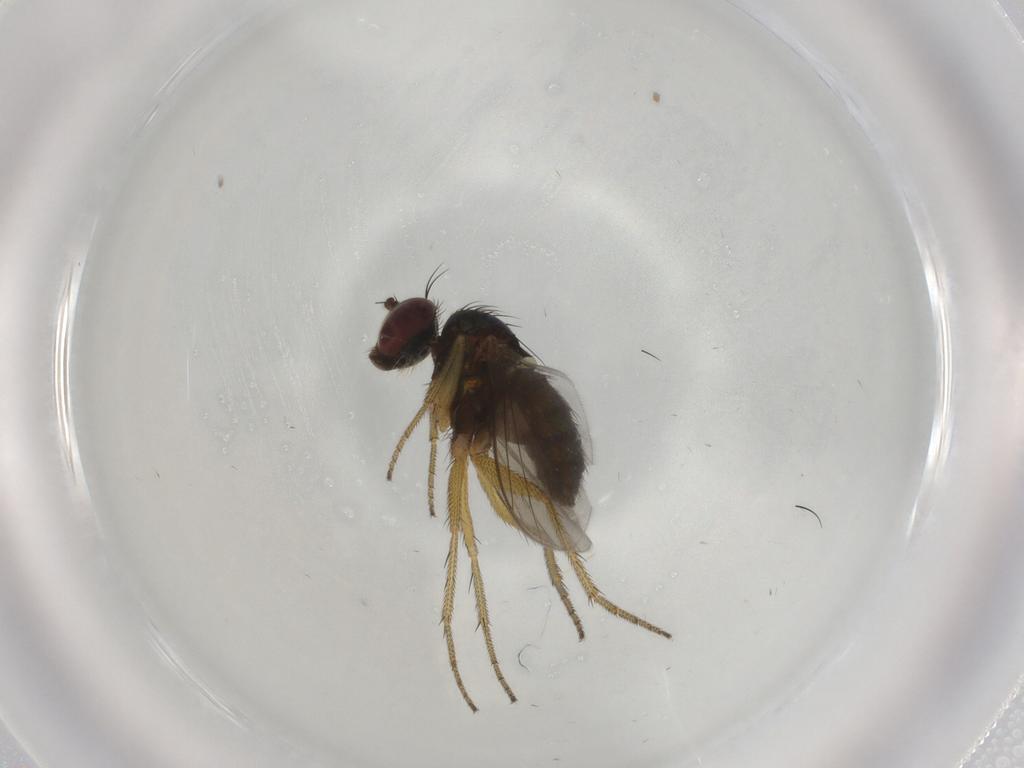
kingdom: Animalia
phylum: Arthropoda
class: Insecta
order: Diptera
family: Dolichopodidae
